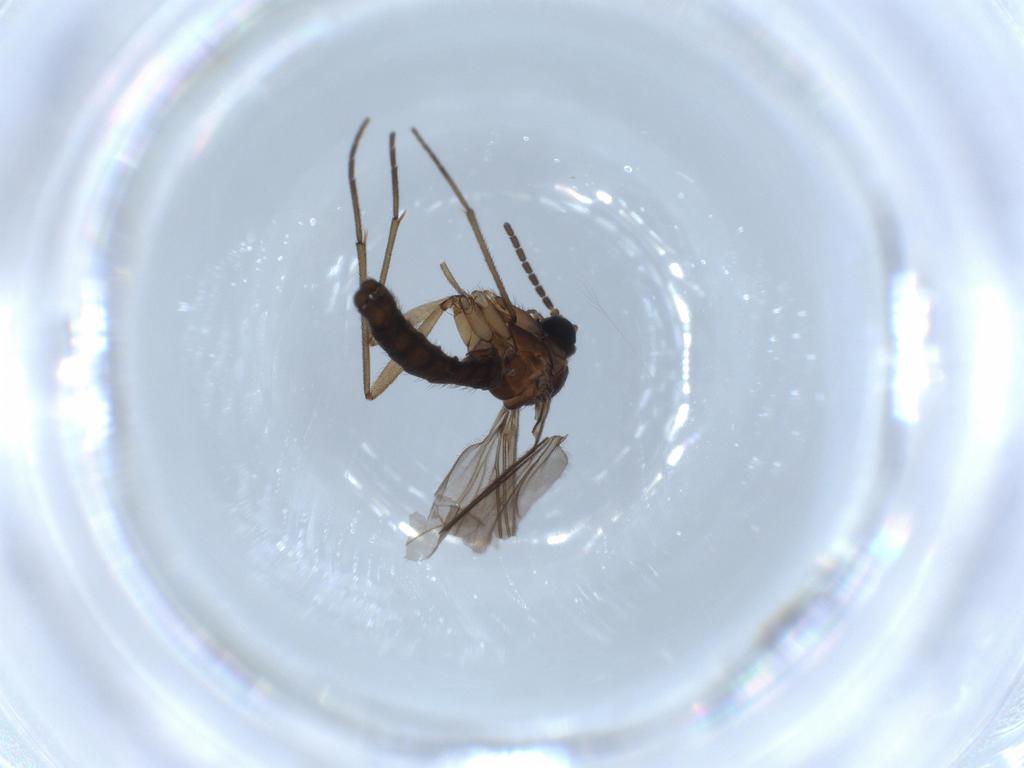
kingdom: Animalia
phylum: Arthropoda
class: Insecta
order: Diptera
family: Sciaridae
